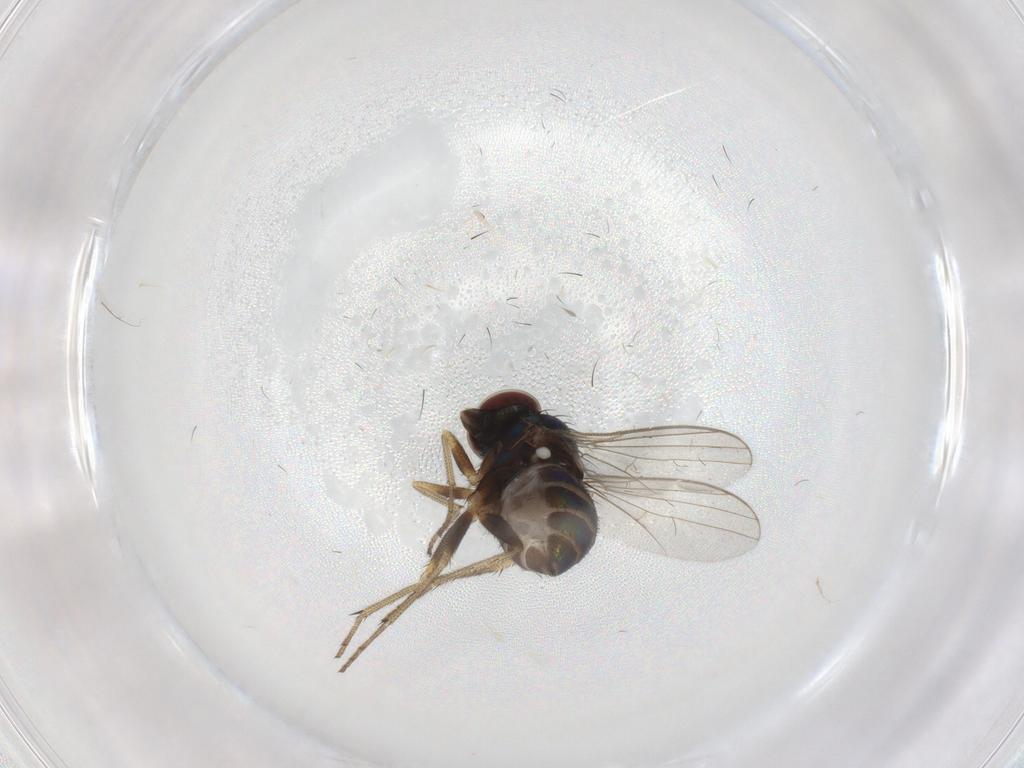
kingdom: Animalia
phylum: Arthropoda
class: Insecta
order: Diptera
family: Dolichopodidae
